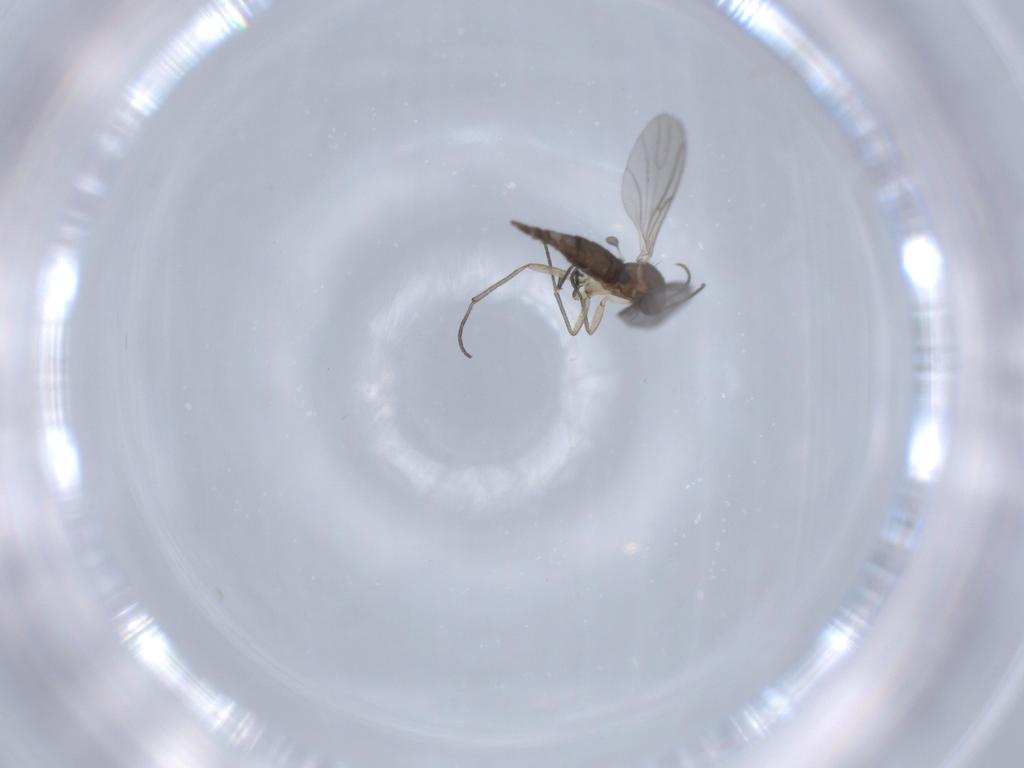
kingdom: Animalia
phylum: Arthropoda
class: Insecta
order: Diptera
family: Sciaridae
